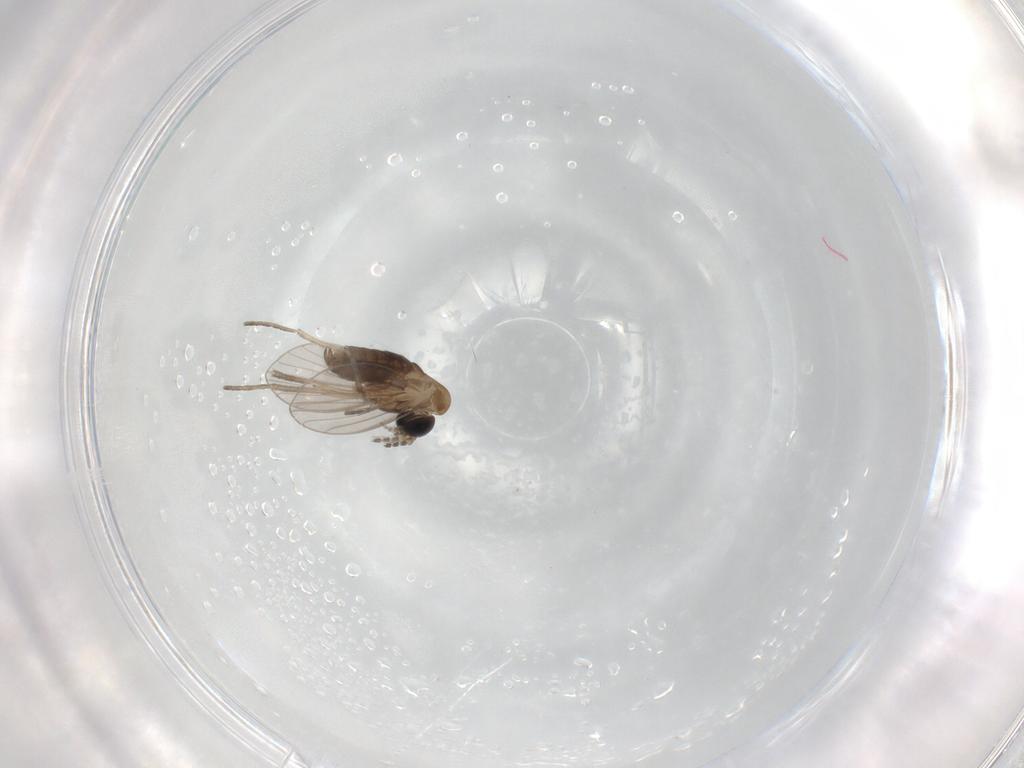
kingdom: Animalia
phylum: Arthropoda
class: Insecta
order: Diptera
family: Psychodidae
